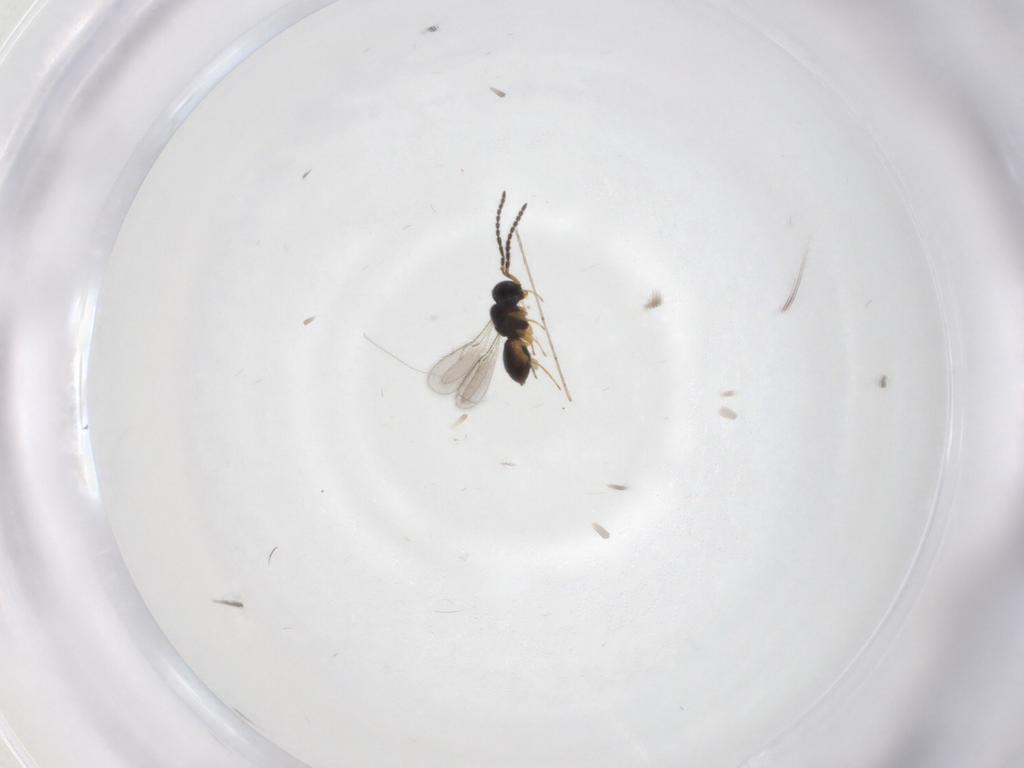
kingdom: Animalia
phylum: Arthropoda
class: Insecta
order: Hymenoptera
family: Scelionidae
